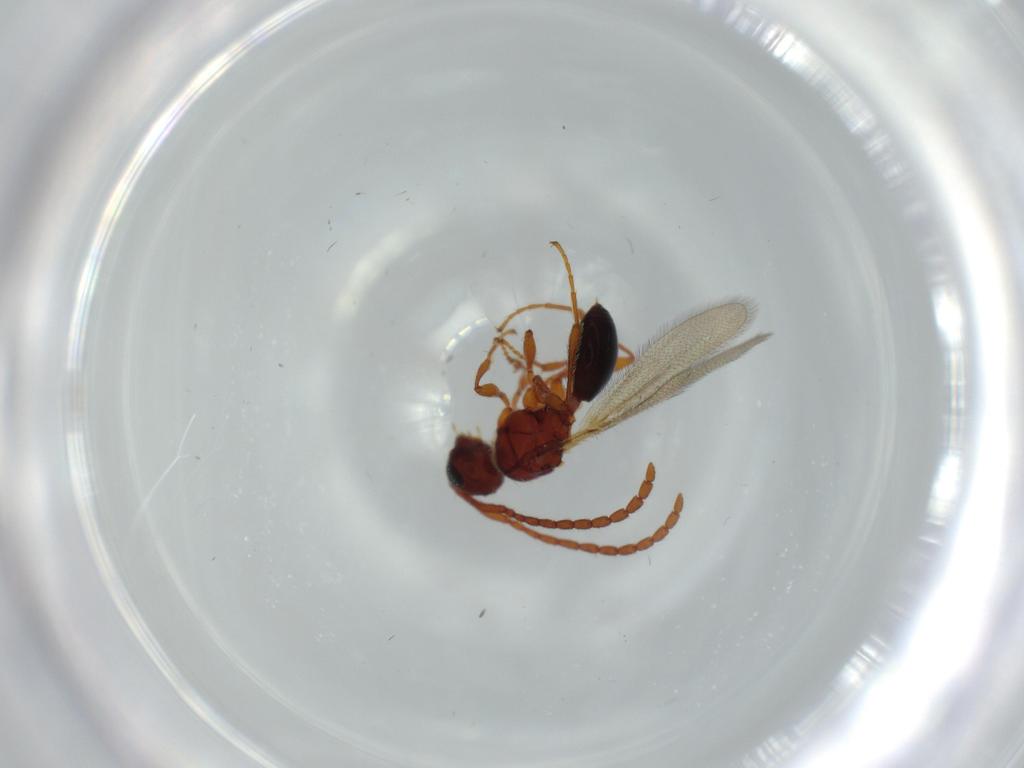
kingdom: Animalia
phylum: Arthropoda
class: Insecta
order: Hymenoptera
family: Diapriidae
